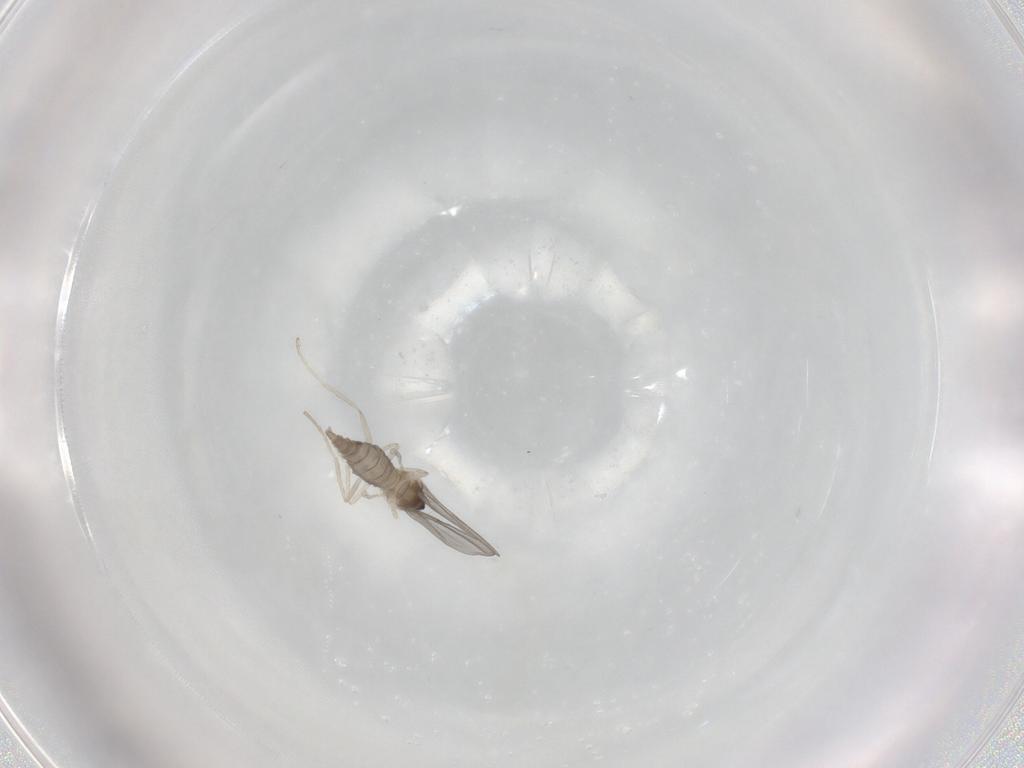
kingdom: Animalia
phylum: Arthropoda
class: Insecta
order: Diptera
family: Cecidomyiidae
